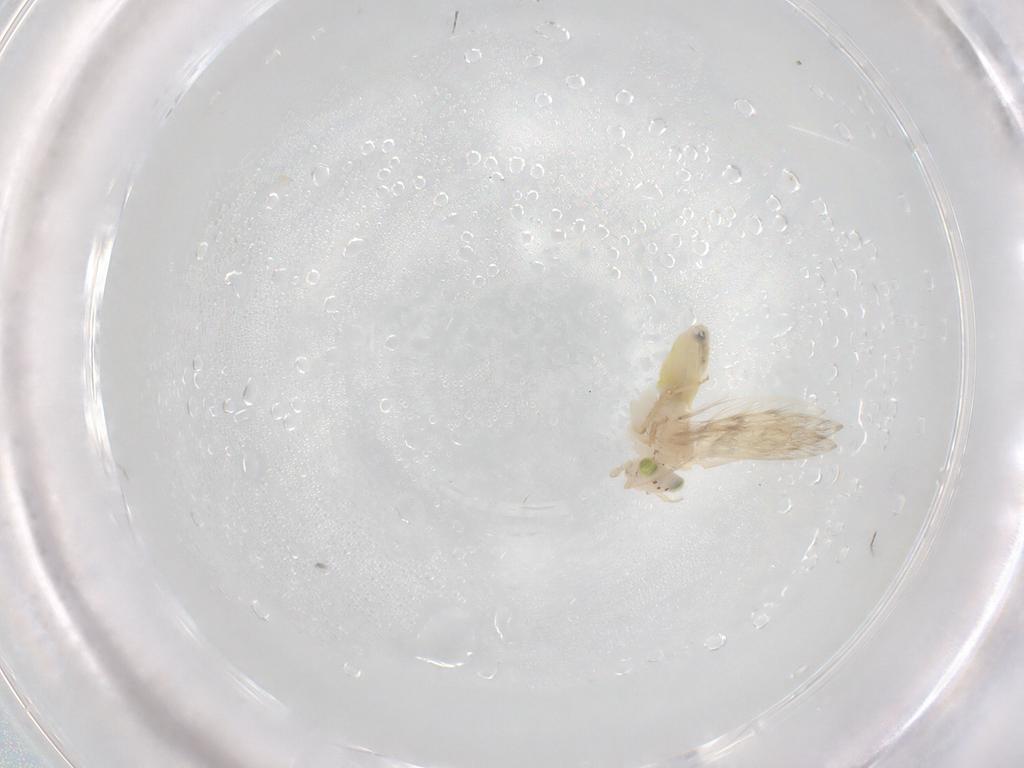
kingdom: Animalia
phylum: Arthropoda
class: Insecta
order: Psocodea
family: Lepidopsocidae
